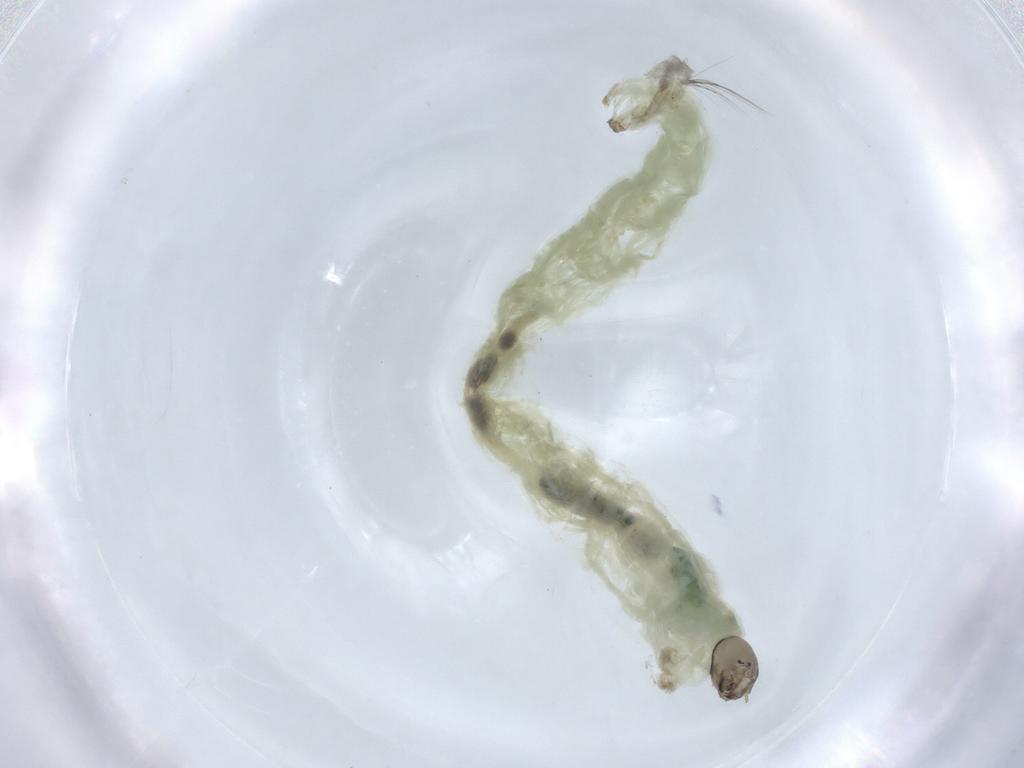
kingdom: Animalia
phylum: Arthropoda
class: Insecta
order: Diptera
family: Chironomidae
